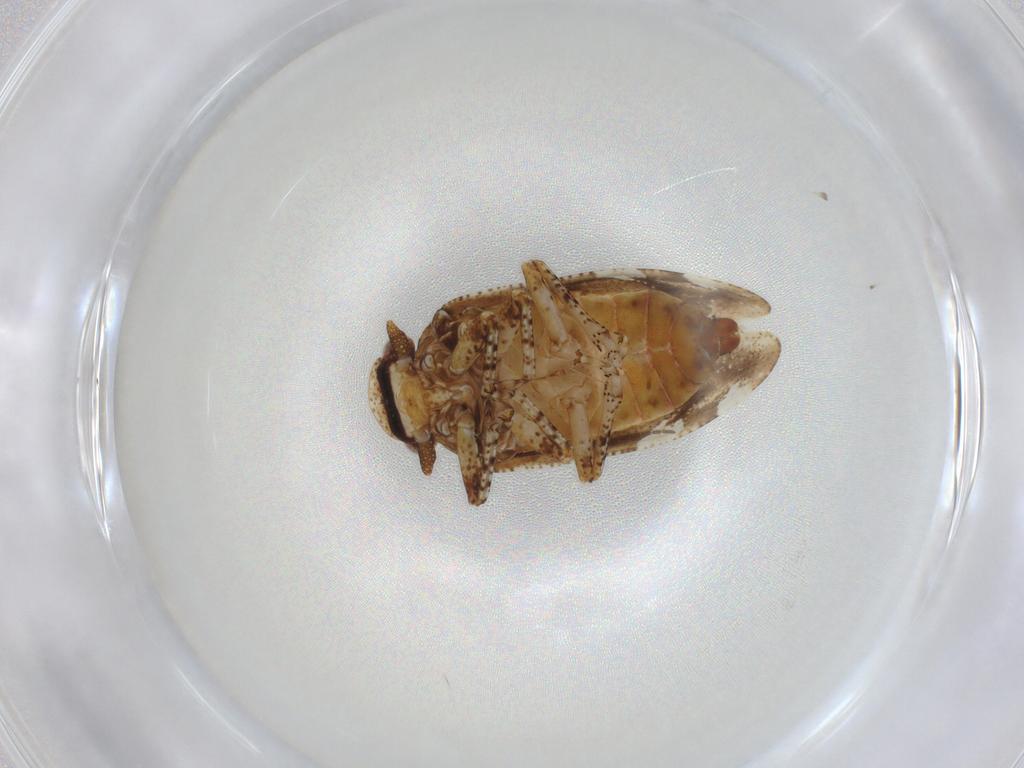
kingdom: Animalia
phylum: Arthropoda
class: Insecta
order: Hemiptera
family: Tettigometridae
